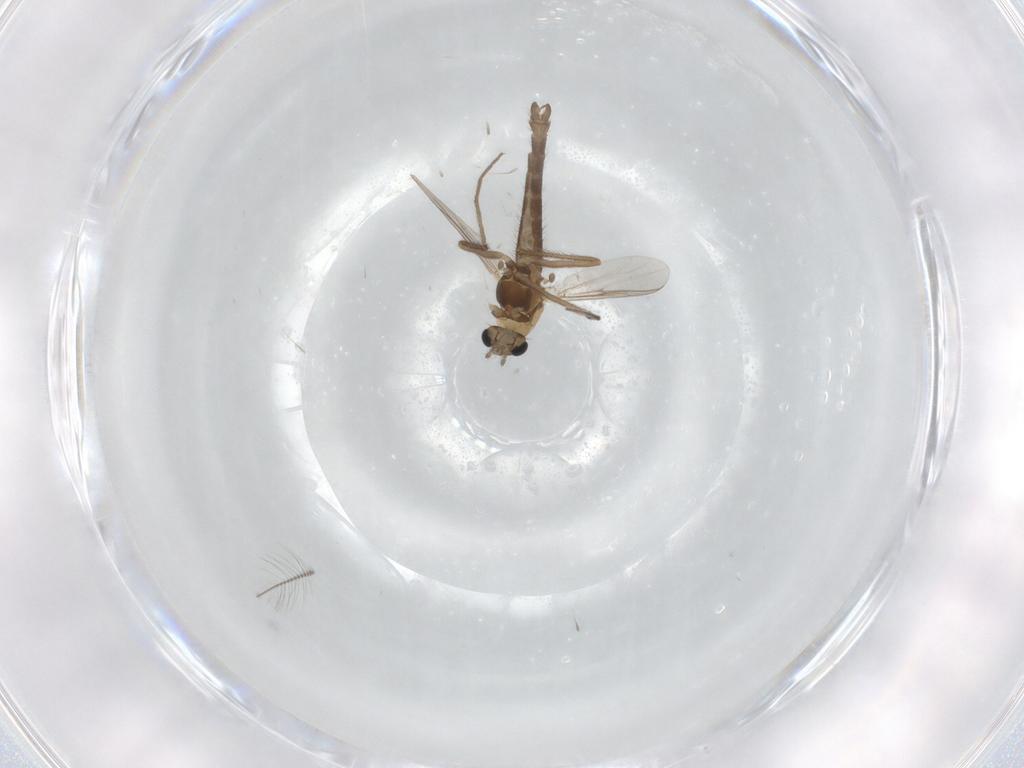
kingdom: Animalia
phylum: Arthropoda
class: Insecta
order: Diptera
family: Chironomidae
